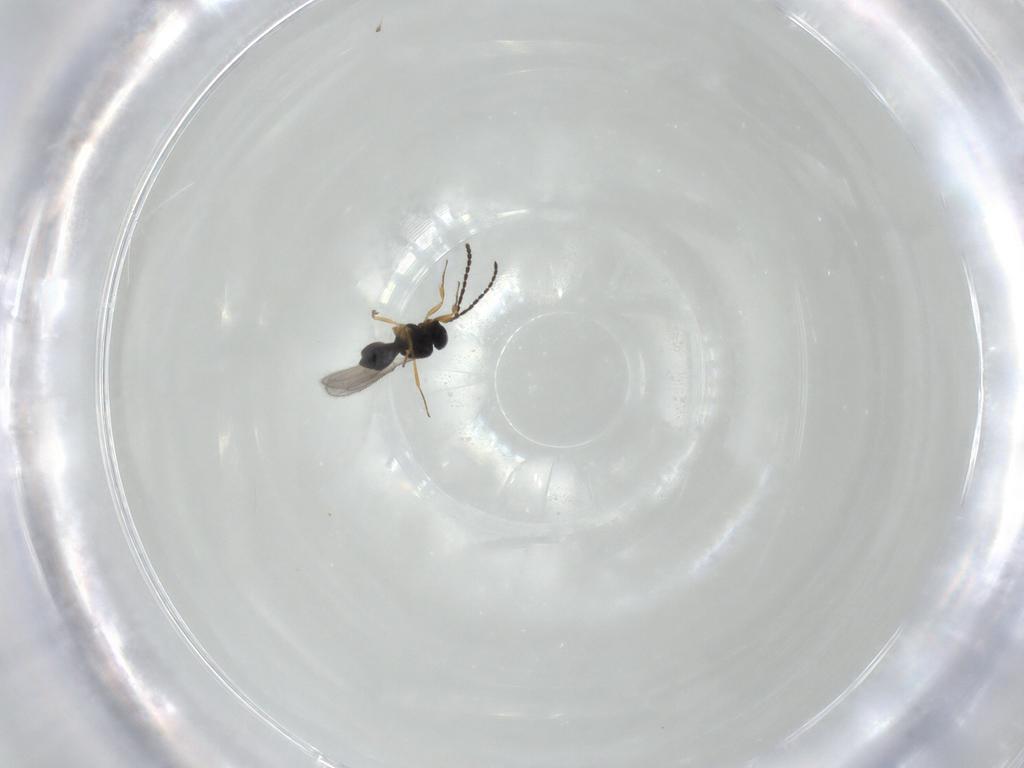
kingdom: Animalia
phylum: Arthropoda
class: Insecta
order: Hymenoptera
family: Scelionidae
